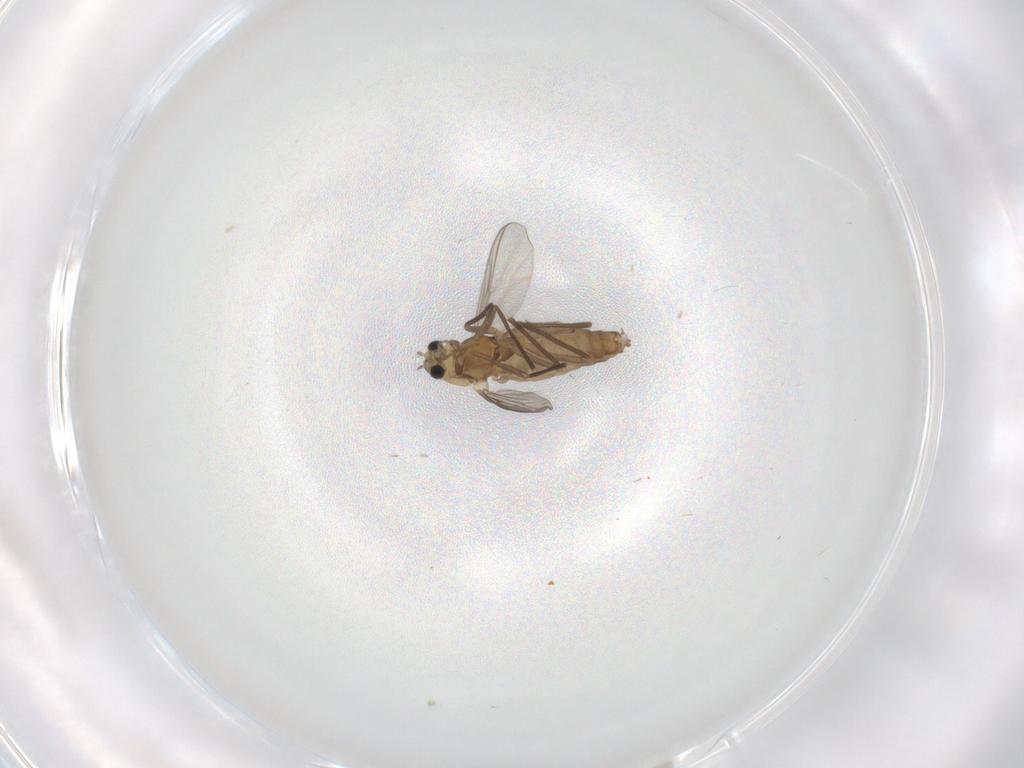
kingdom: Animalia
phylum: Arthropoda
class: Insecta
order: Diptera
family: Chironomidae
